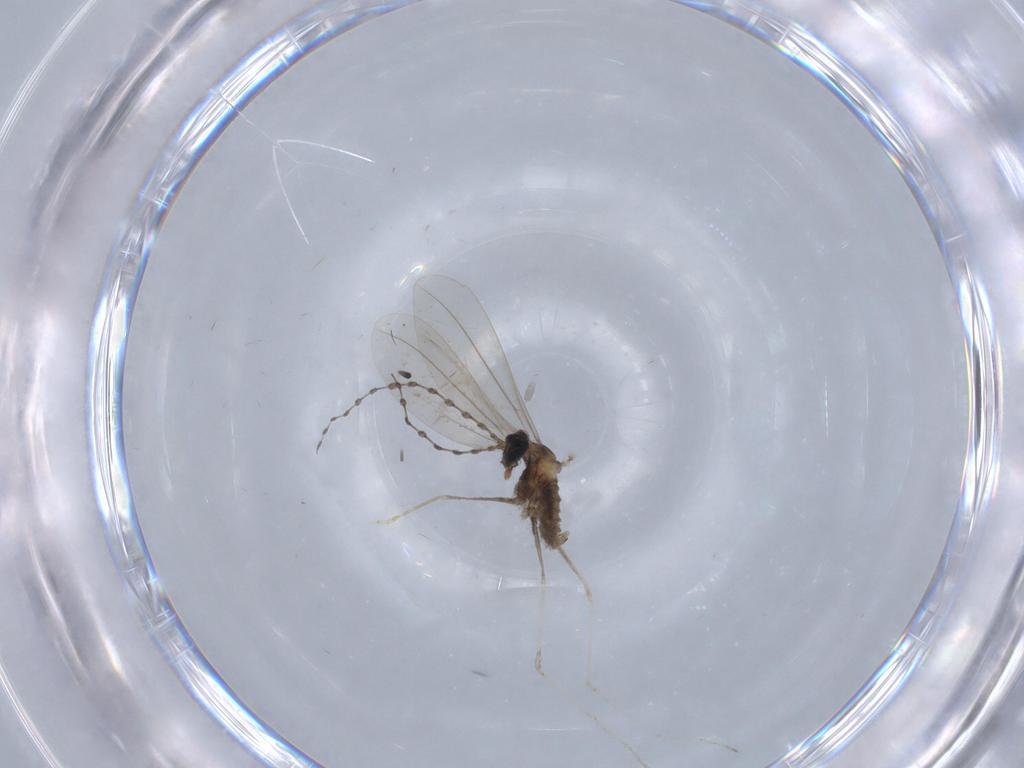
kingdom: Animalia
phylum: Arthropoda
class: Insecta
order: Diptera
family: Cecidomyiidae
